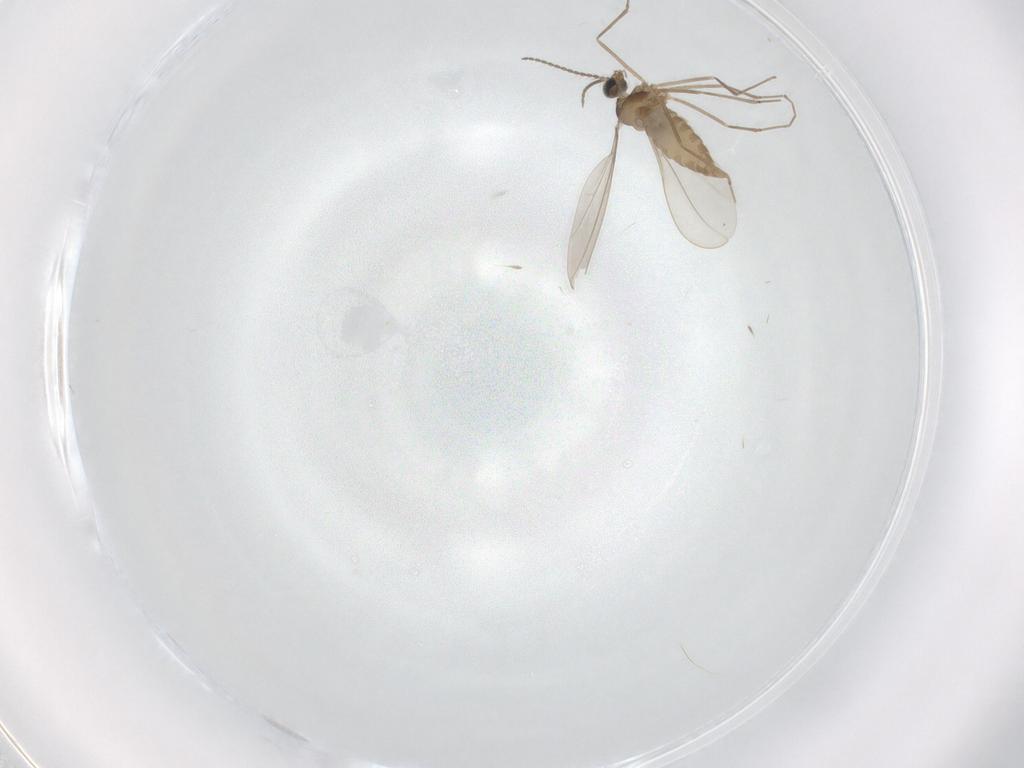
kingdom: Animalia
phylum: Arthropoda
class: Insecta
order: Diptera
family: Cecidomyiidae
